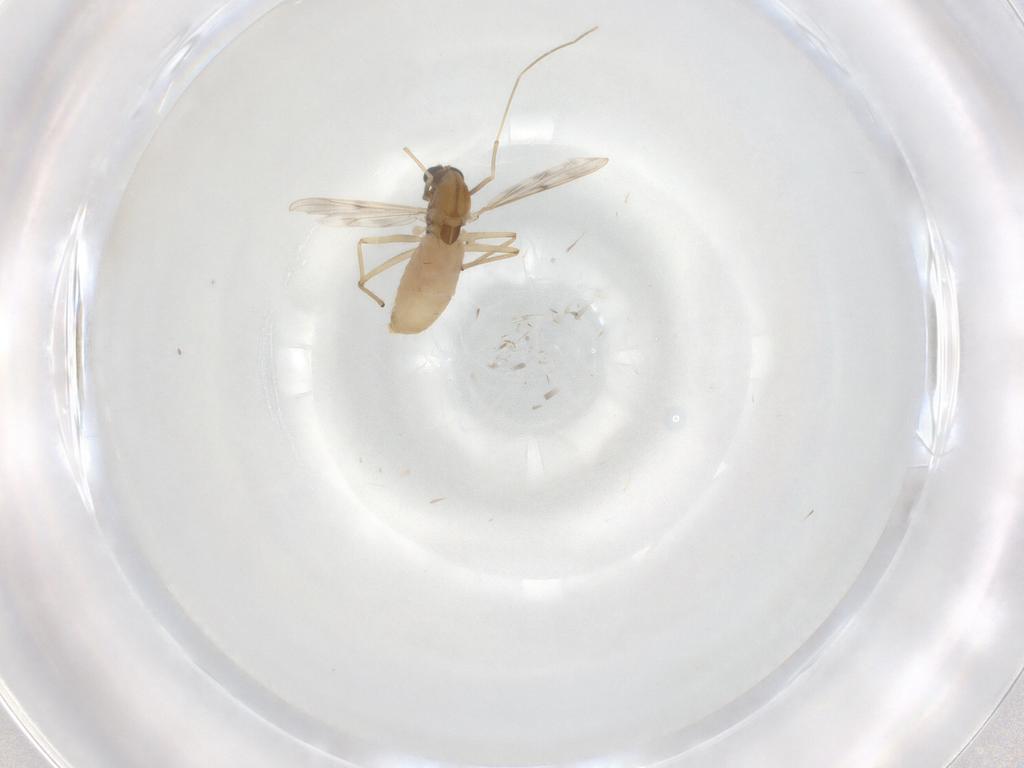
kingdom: Animalia
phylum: Arthropoda
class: Insecta
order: Diptera
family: Chironomidae
